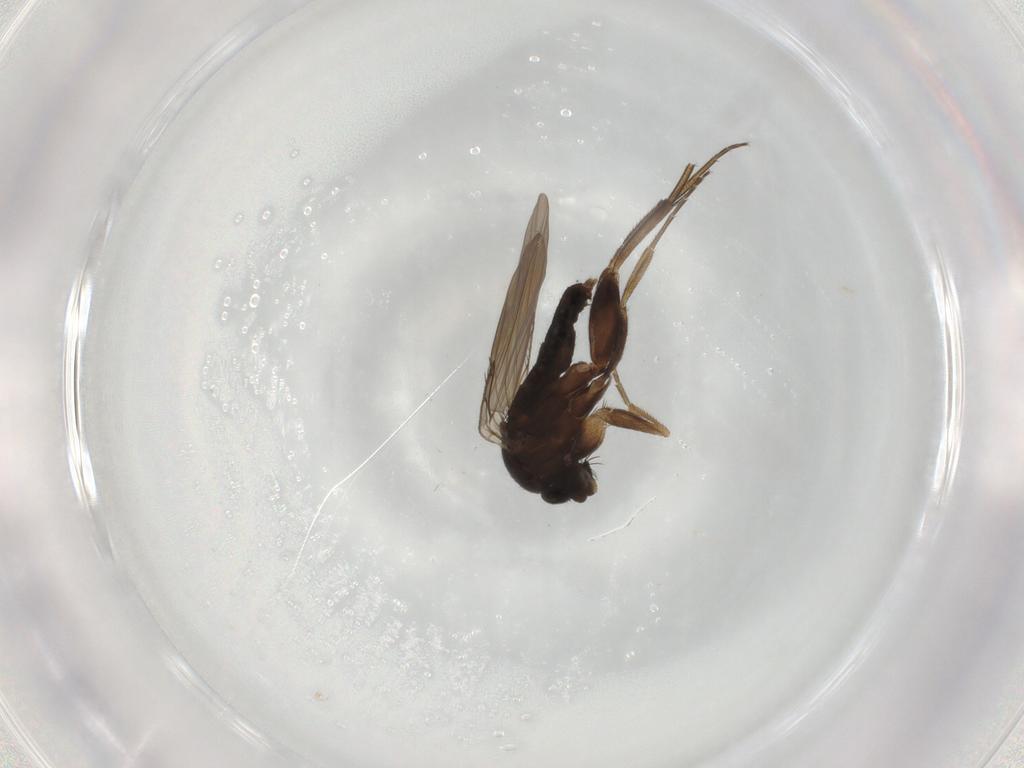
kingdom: Animalia
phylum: Arthropoda
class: Insecta
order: Diptera
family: Phoridae
